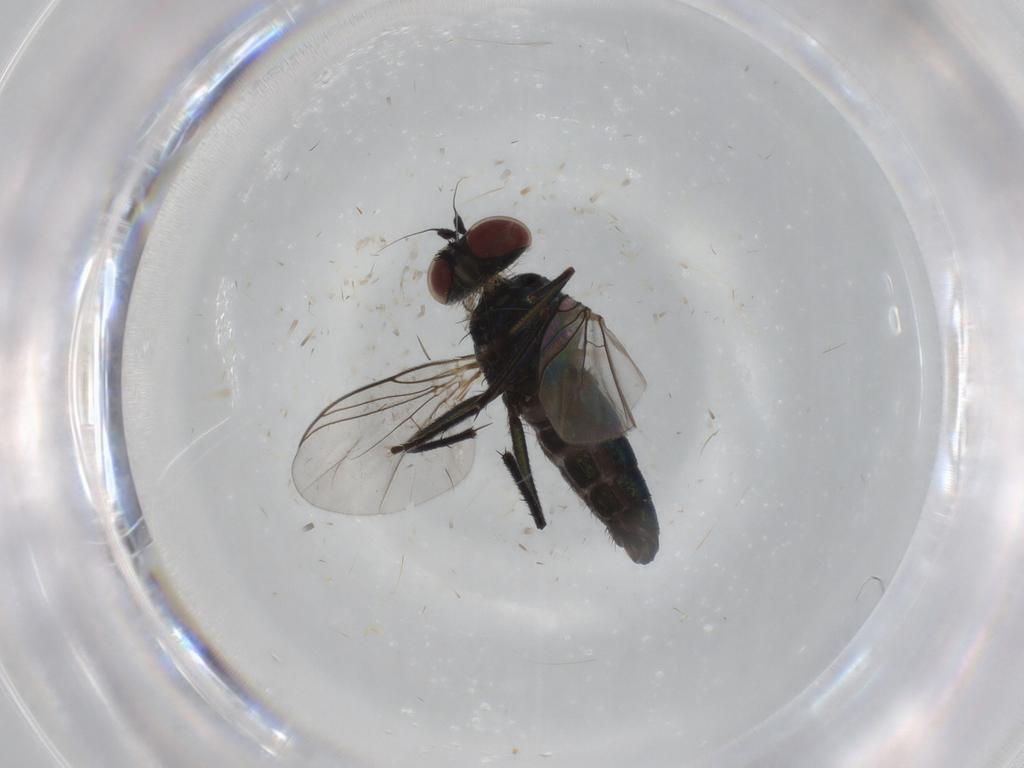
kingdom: Animalia
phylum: Arthropoda
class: Insecta
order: Diptera
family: Dolichopodidae
